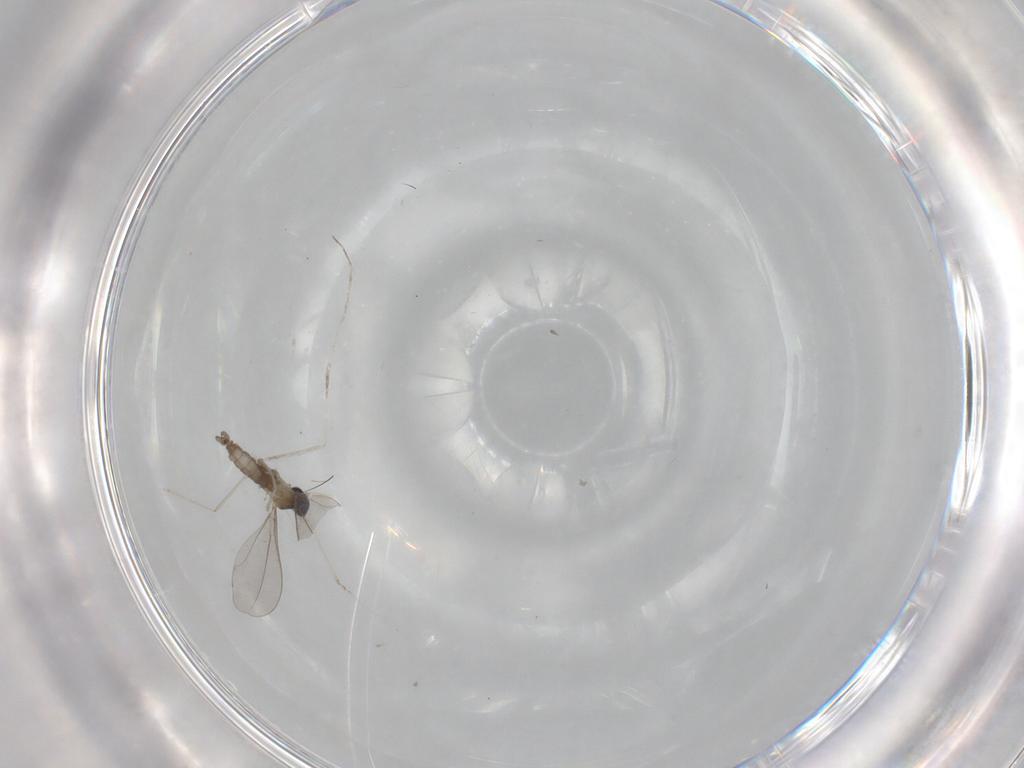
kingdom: Animalia
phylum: Arthropoda
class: Insecta
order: Diptera
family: Cecidomyiidae
